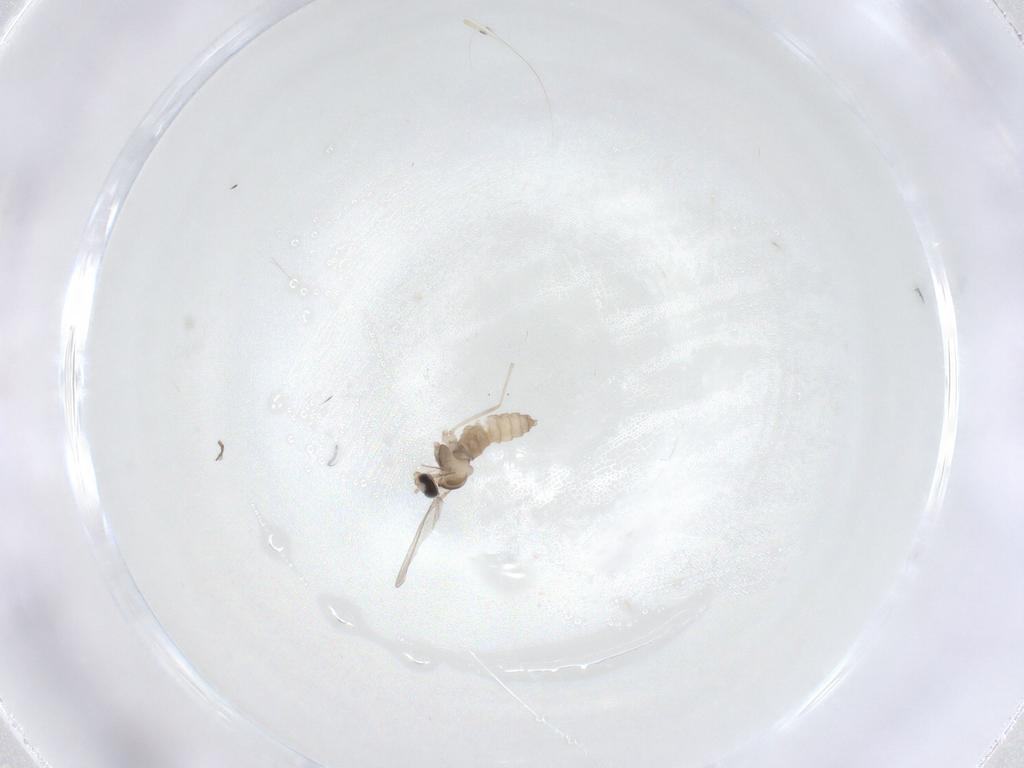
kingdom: Animalia
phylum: Arthropoda
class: Insecta
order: Diptera
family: Cecidomyiidae
